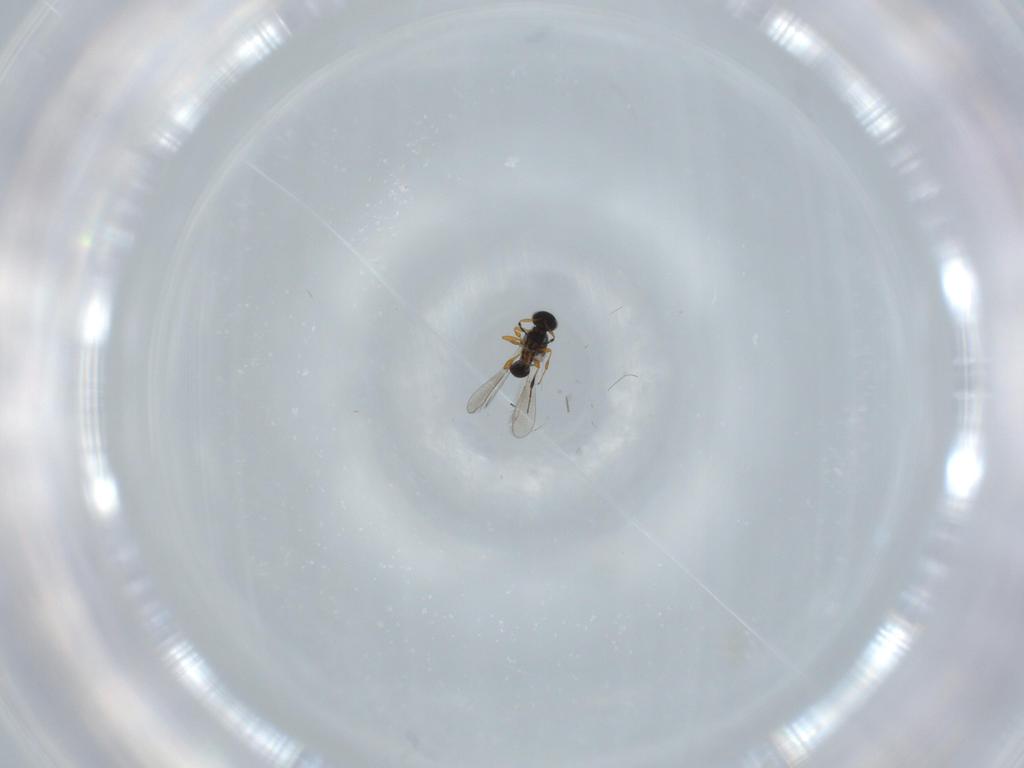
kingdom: Animalia
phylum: Arthropoda
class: Insecta
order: Hymenoptera
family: Platygastridae
